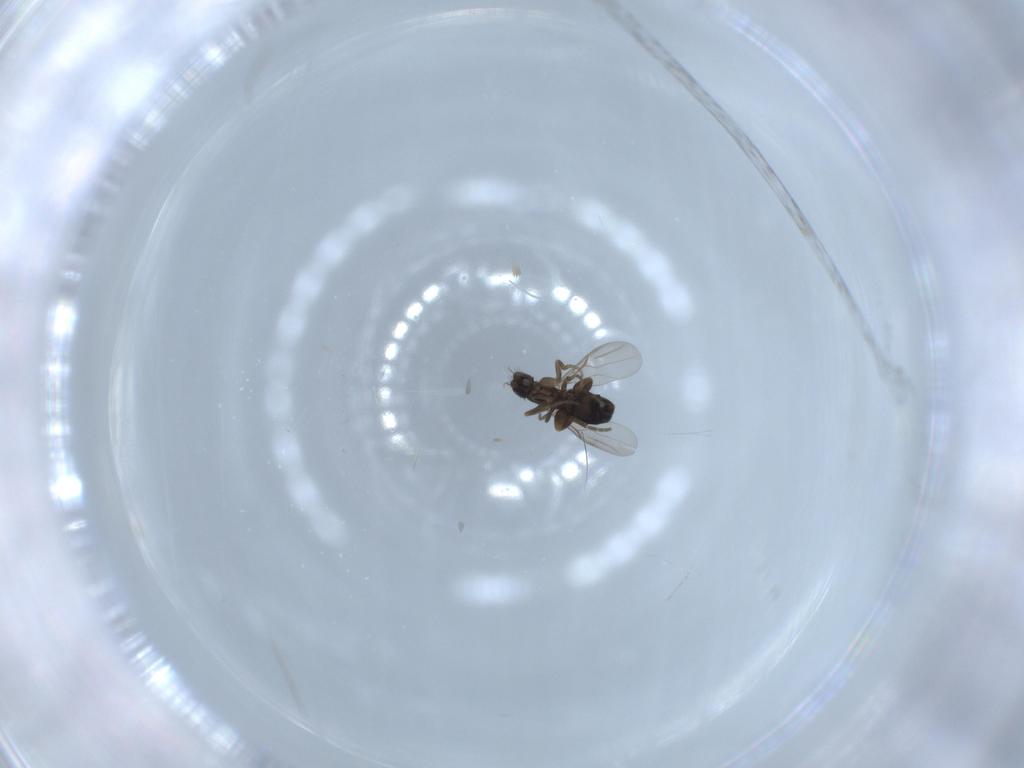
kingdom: Animalia
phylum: Arthropoda
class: Insecta
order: Diptera
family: Phoridae
